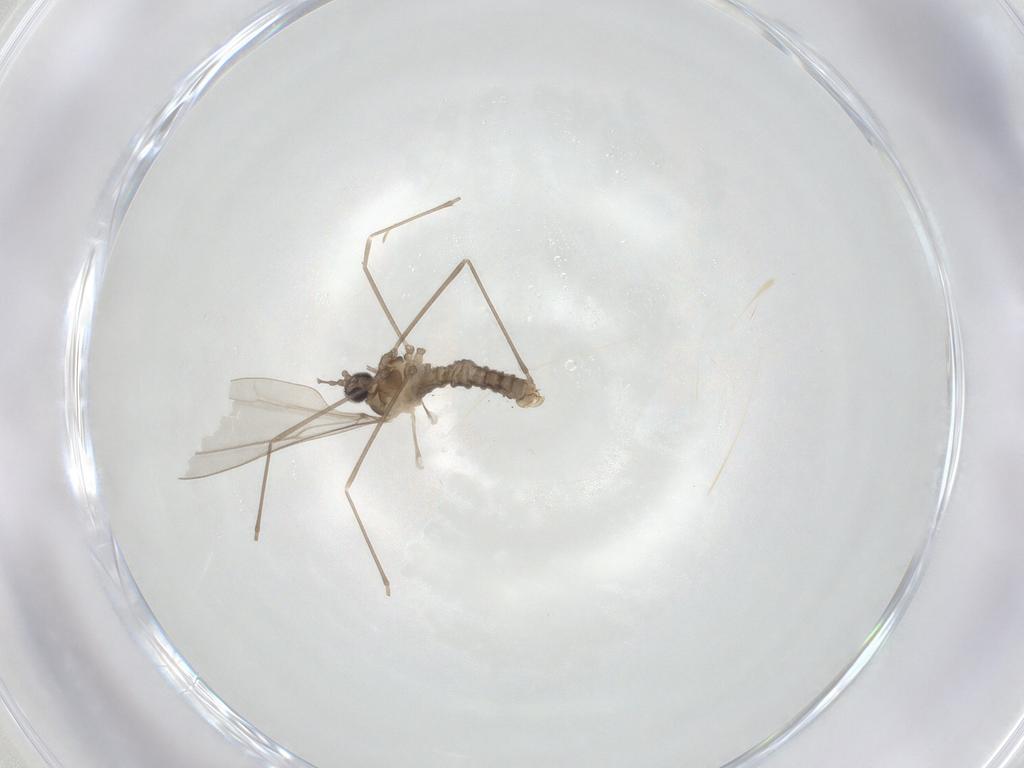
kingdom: Animalia
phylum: Arthropoda
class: Insecta
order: Diptera
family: Cecidomyiidae
